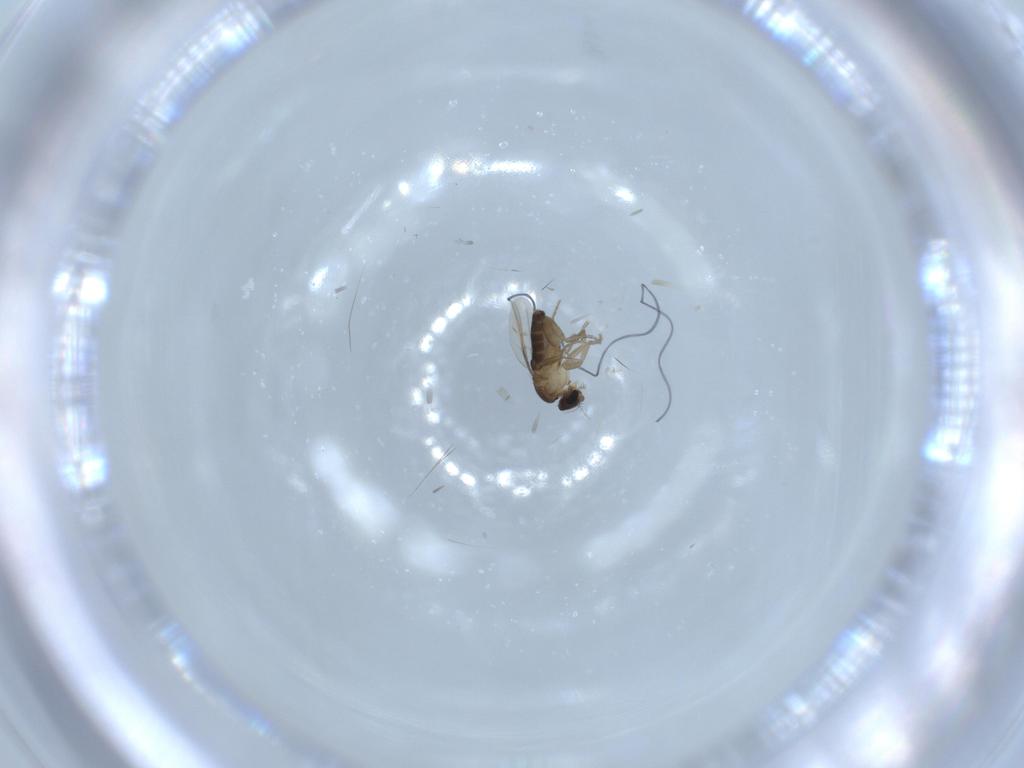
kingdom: Animalia
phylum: Arthropoda
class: Insecta
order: Diptera
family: Phoridae
